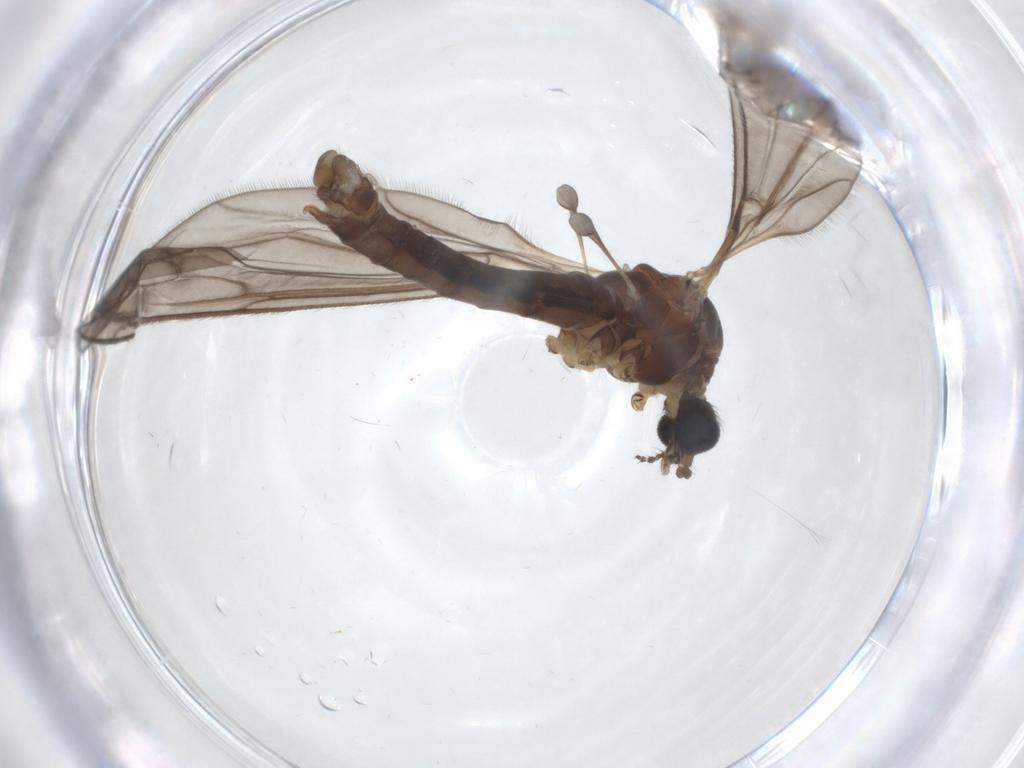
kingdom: Animalia
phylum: Arthropoda
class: Insecta
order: Diptera
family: Limoniidae
